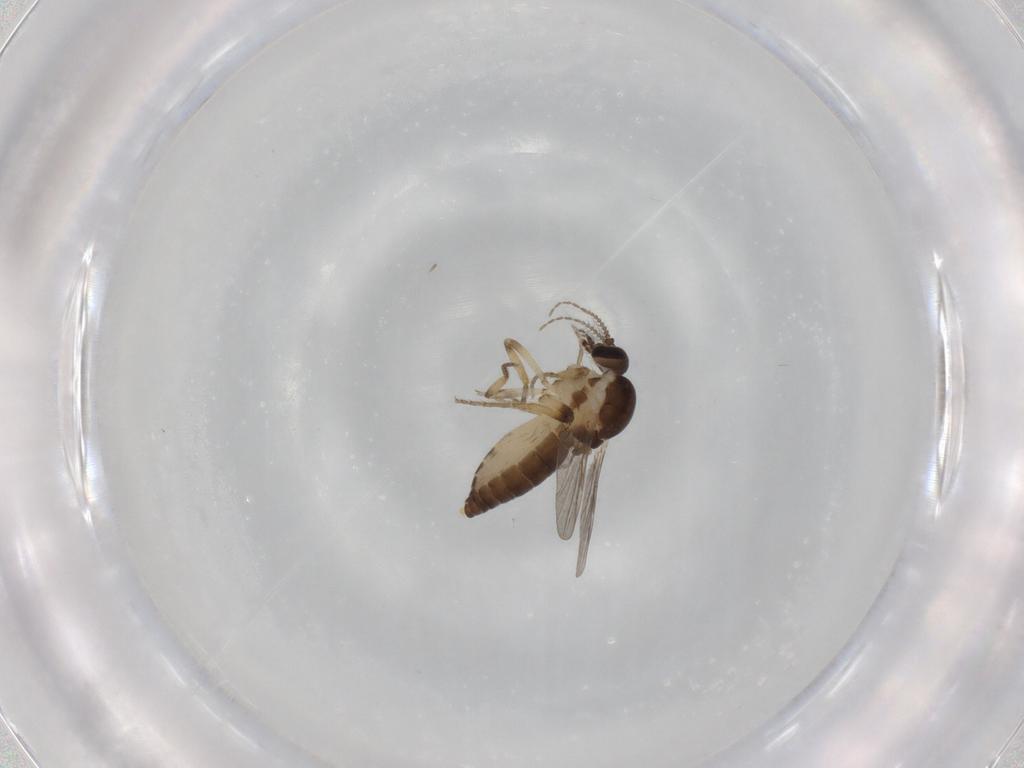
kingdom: Animalia
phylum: Arthropoda
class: Insecta
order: Diptera
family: Ceratopogonidae
